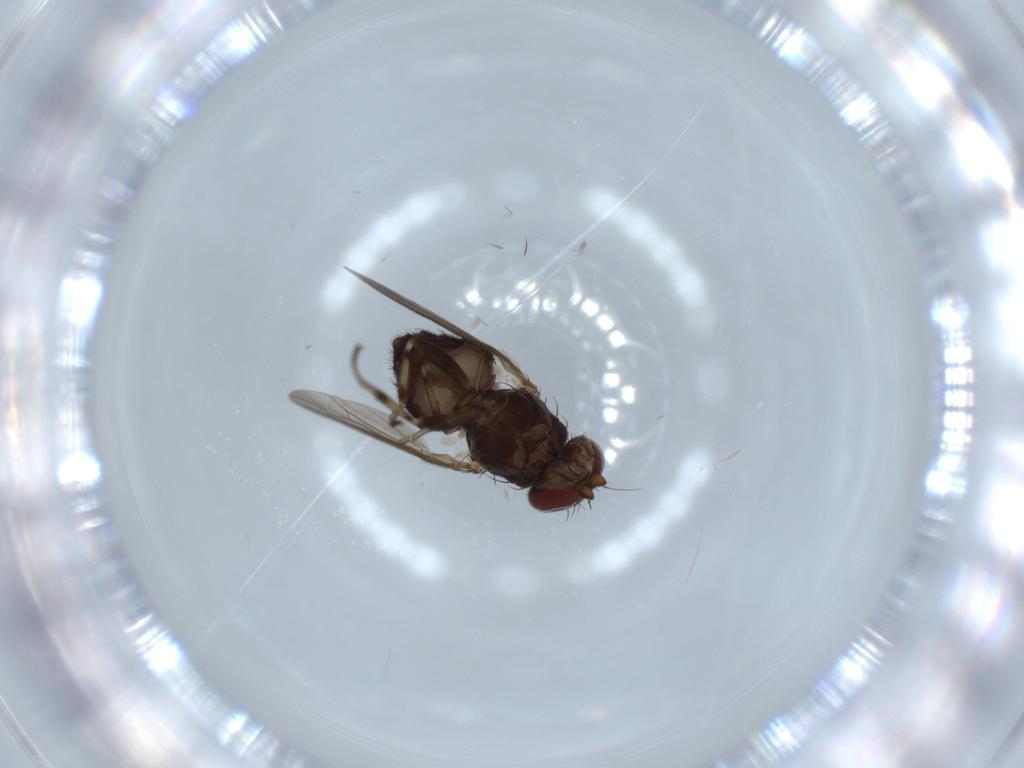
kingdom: Animalia
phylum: Arthropoda
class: Insecta
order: Diptera
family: Heleomyzidae
